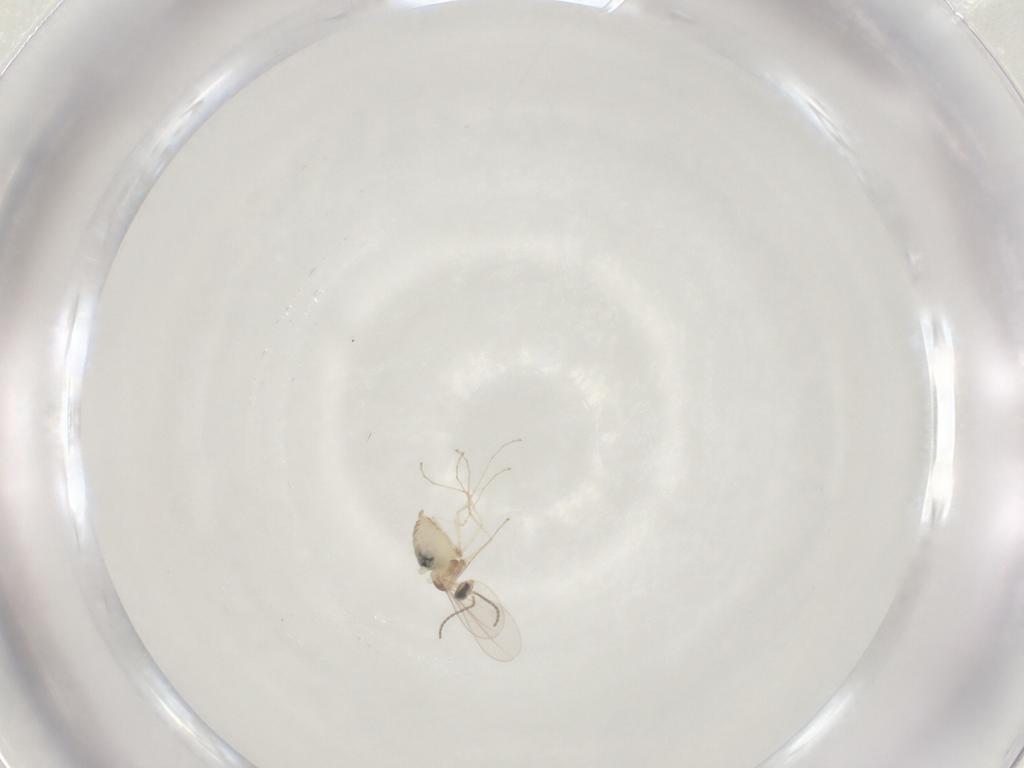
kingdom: Animalia
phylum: Arthropoda
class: Insecta
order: Diptera
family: Cecidomyiidae
